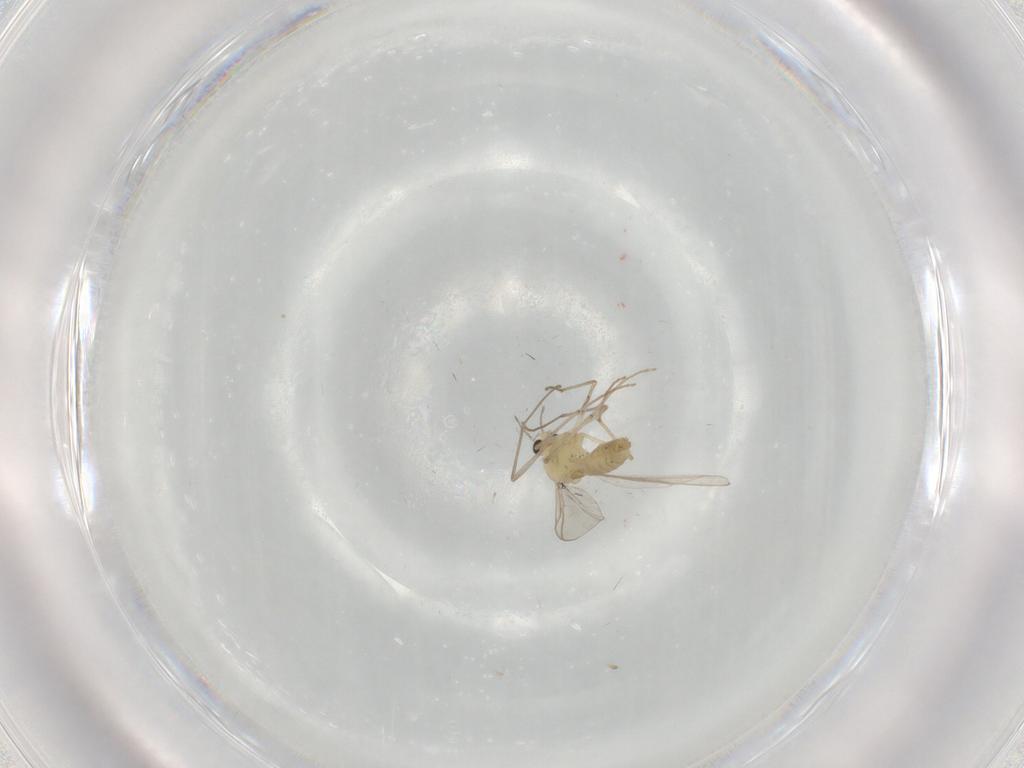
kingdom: Animalia
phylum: Arthropoda
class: Insecta
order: Diptera
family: Chironomidae
